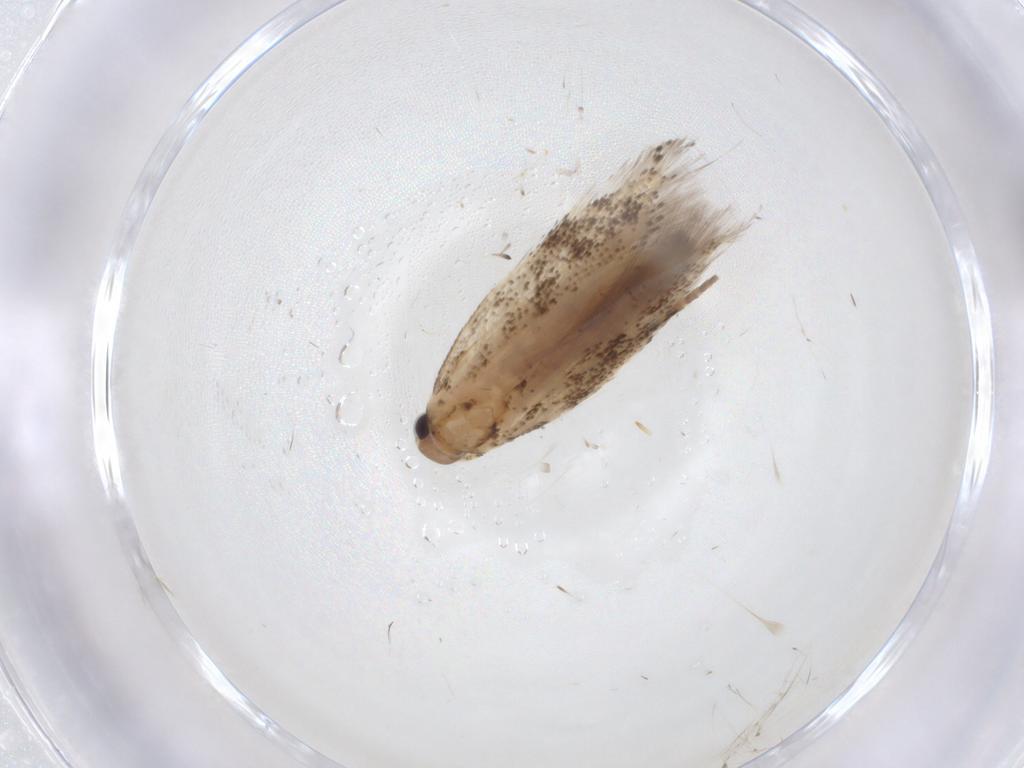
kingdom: Animalia
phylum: Arthropoda
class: Insecta
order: Lepidoptera
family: Gelechiidae
